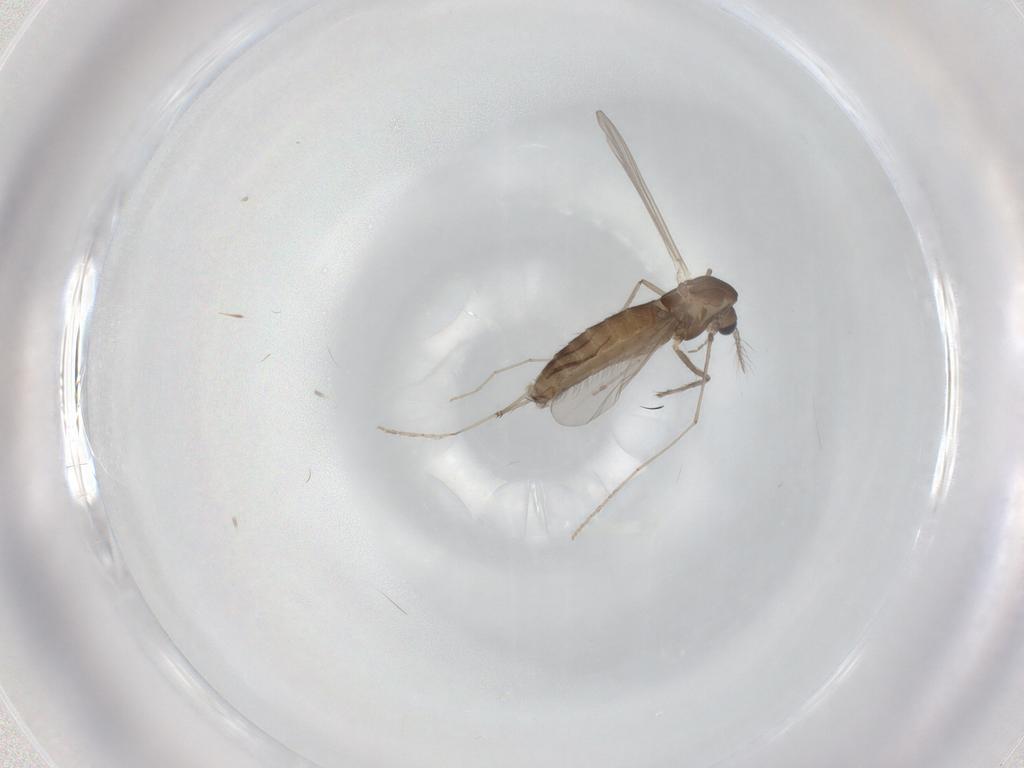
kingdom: Animalia
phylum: Arthropoda
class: Insecta
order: Diptera
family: Chironomidae
